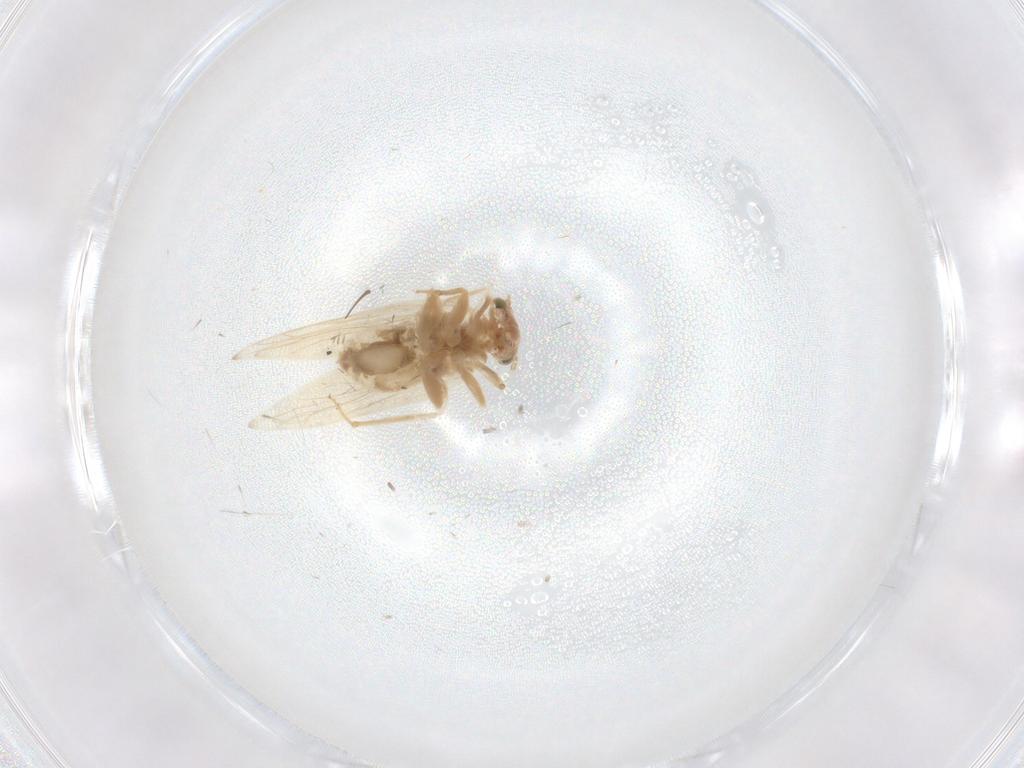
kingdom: Animalia
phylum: Arthropoda
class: Insecta
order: Psocodea
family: Lepidopsocidae
